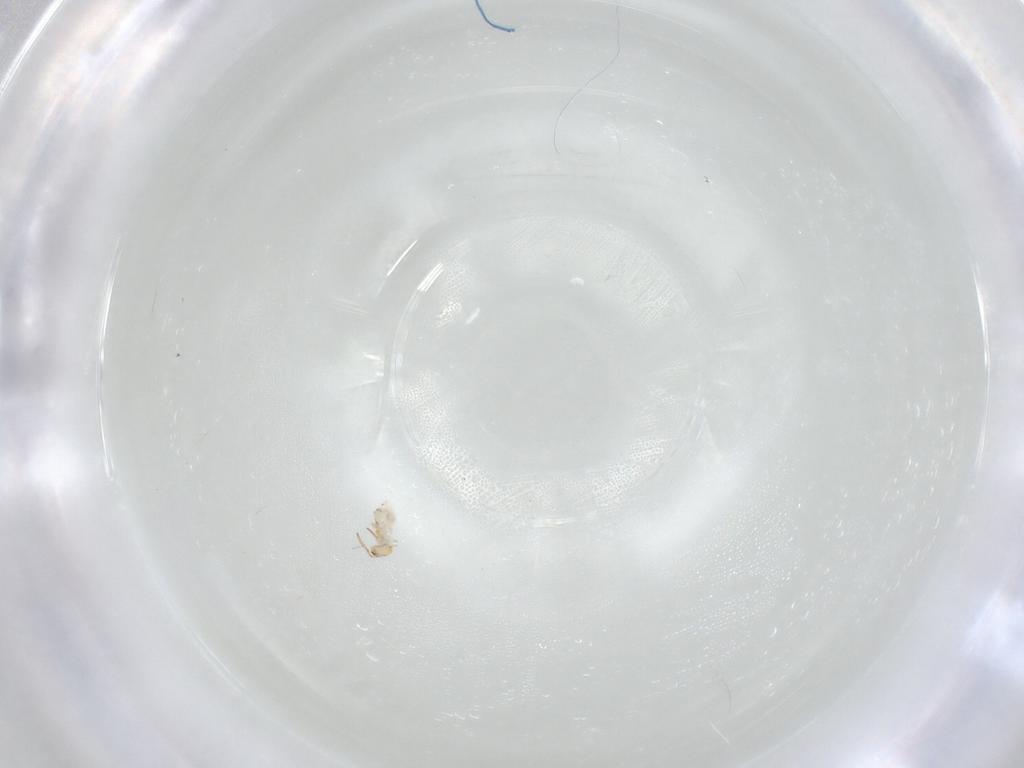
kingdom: Animalia
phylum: Arthropoda
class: Collembola
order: Symphypleona
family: Bourletiellidae
